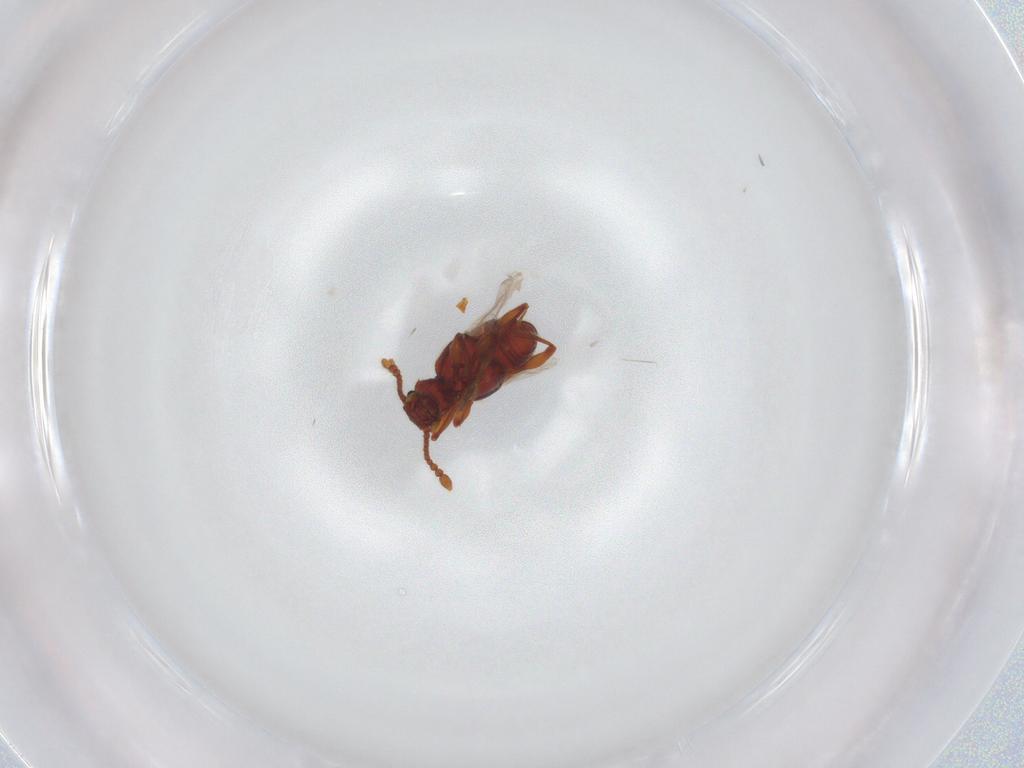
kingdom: Animalia
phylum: Arthropoda
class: Insecta
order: Coleoptera
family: Staphylinidae
